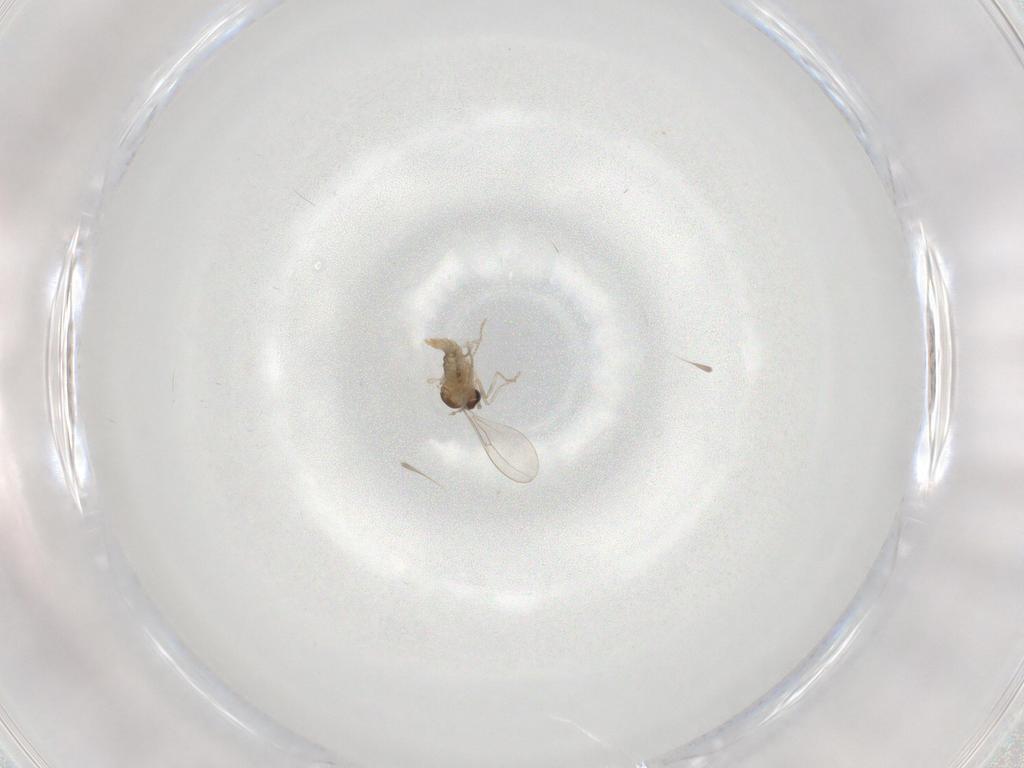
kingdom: Animalia
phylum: Arthropoda
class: Insecta
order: Diptera
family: Cecidomyiidae
